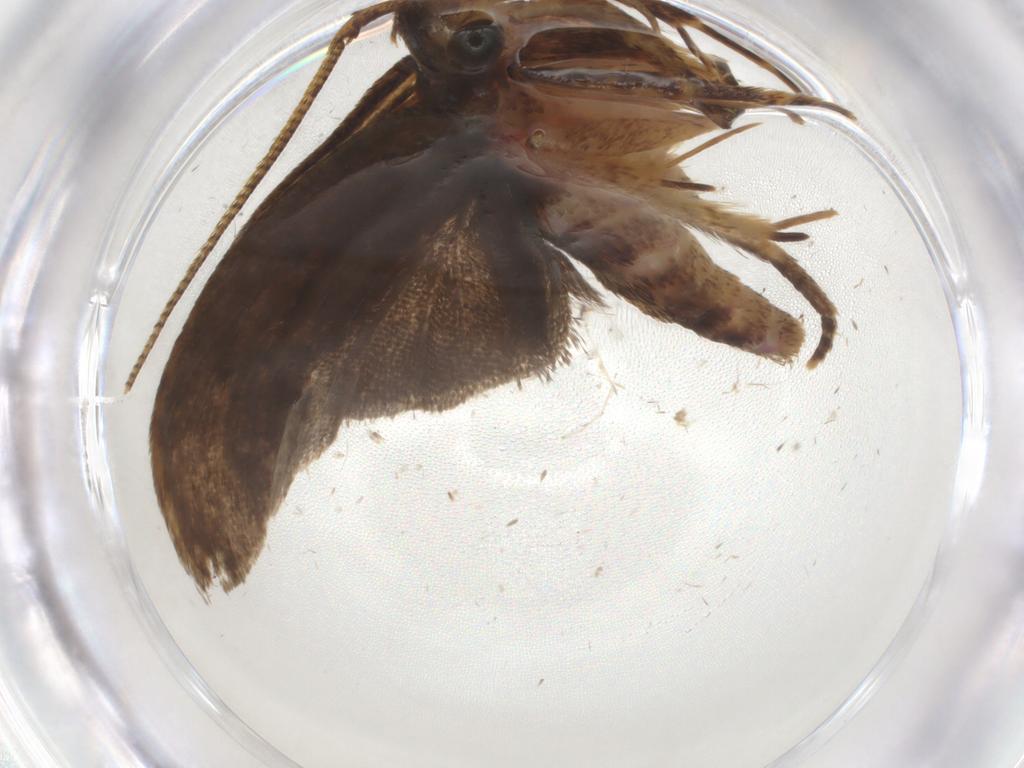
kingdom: Animalia
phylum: Arthropoda
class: Insecta
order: Lepidoptera
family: Autostichidae
